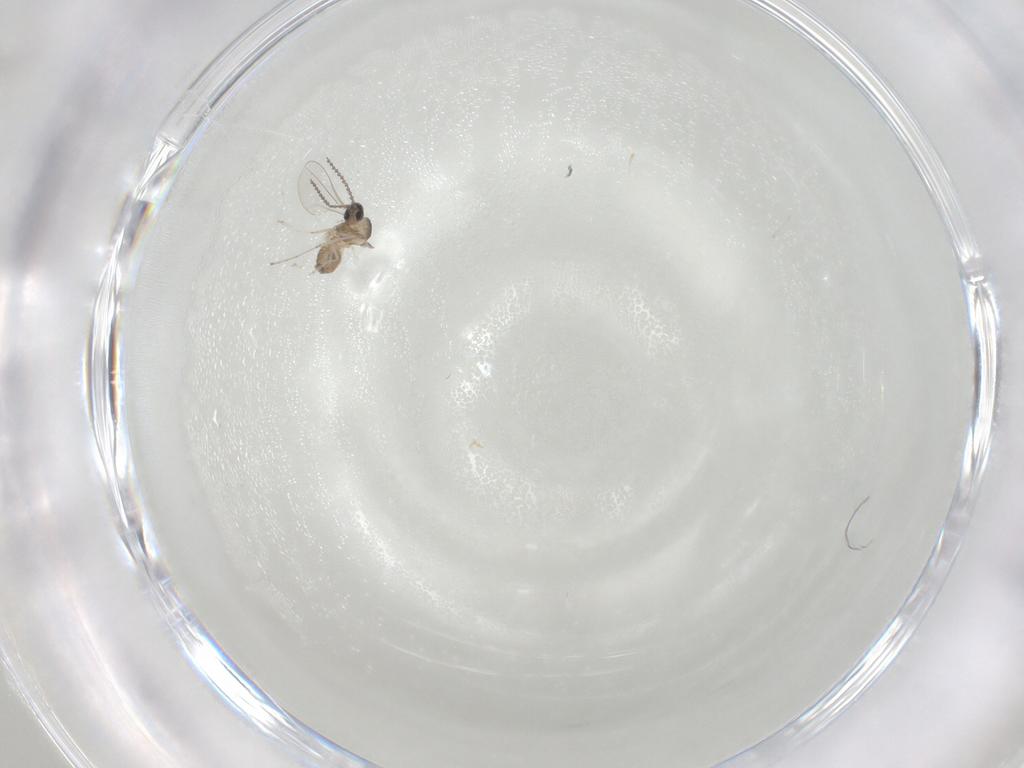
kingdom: Animalia
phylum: Arthropoda
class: Insecta
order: Diptera
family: Cecidomyiidae
